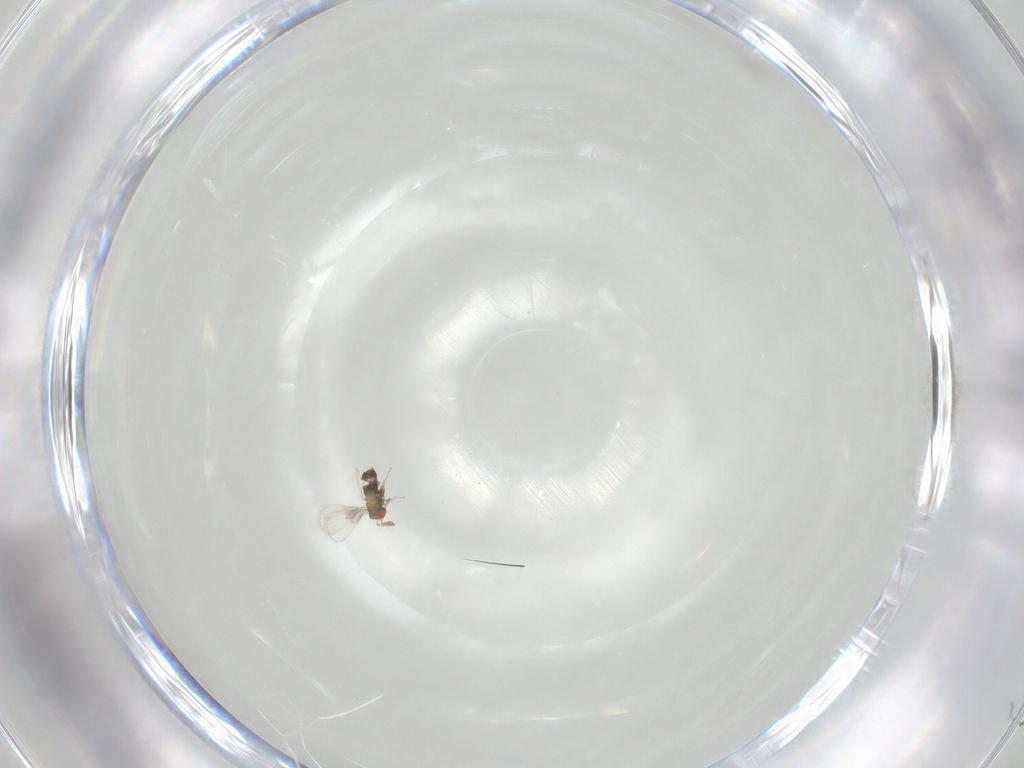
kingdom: Animalia
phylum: Arthropoda
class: Insecta
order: Hymenoptera
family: Trichogrammatidae
